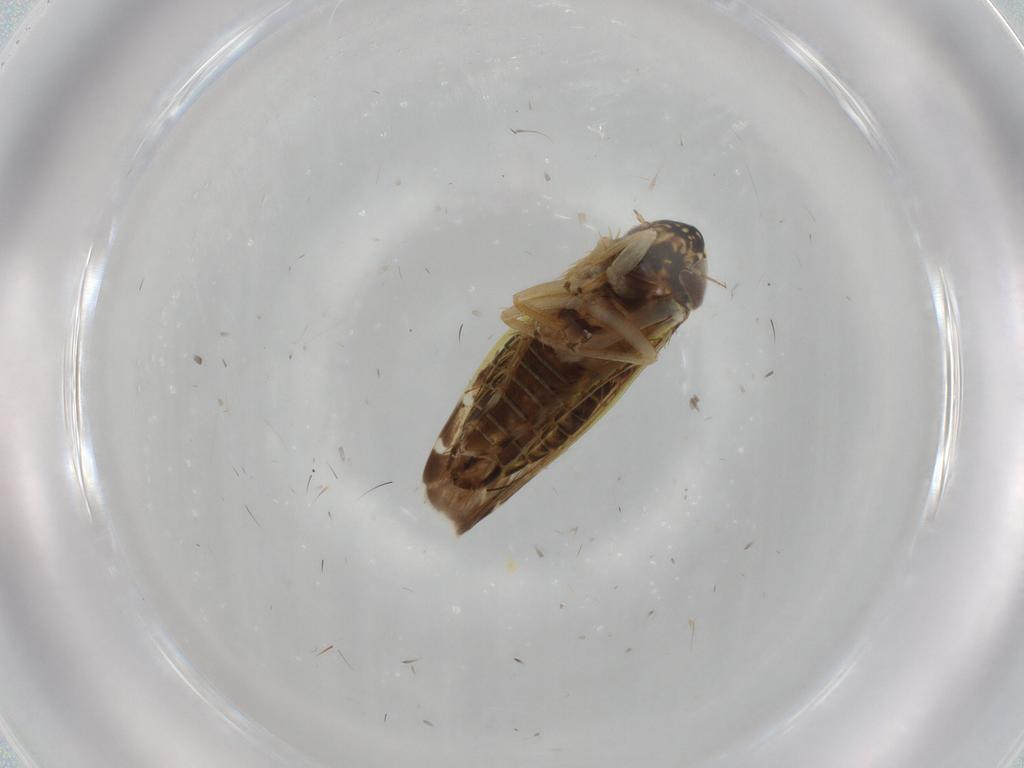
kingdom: Animalia
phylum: Arthropoda
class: Insecta
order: Hemiptera
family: Cicadellidae
